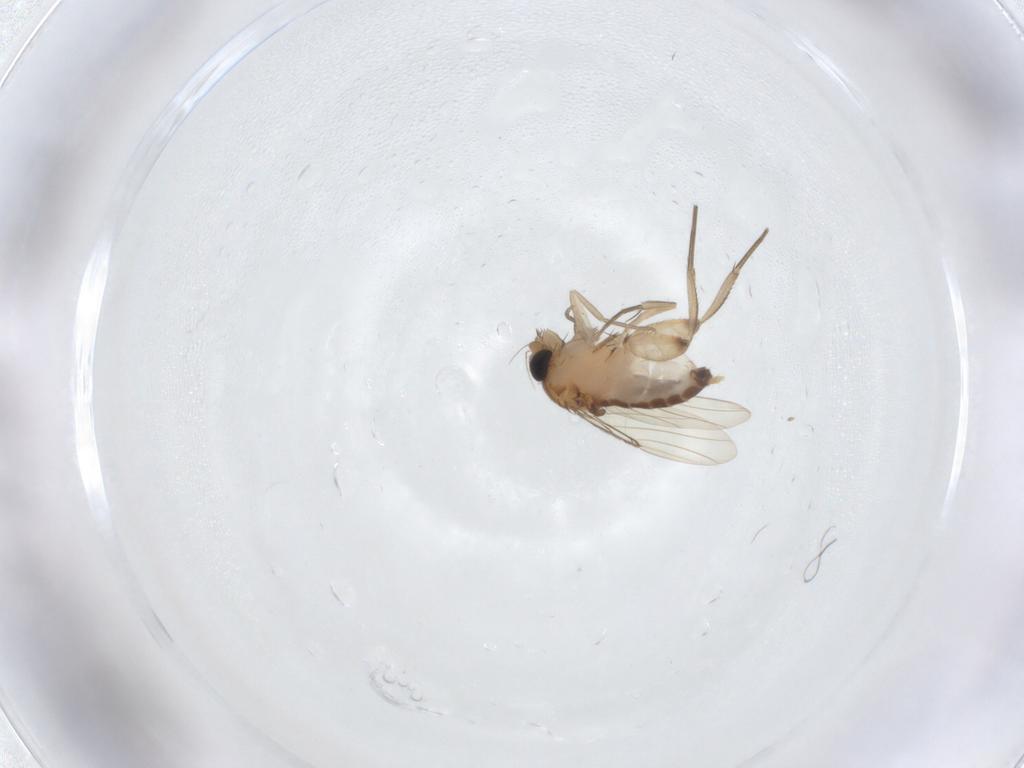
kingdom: Animalia
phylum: Arthropoda
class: Insecta
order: Diptera
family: Phoridae
